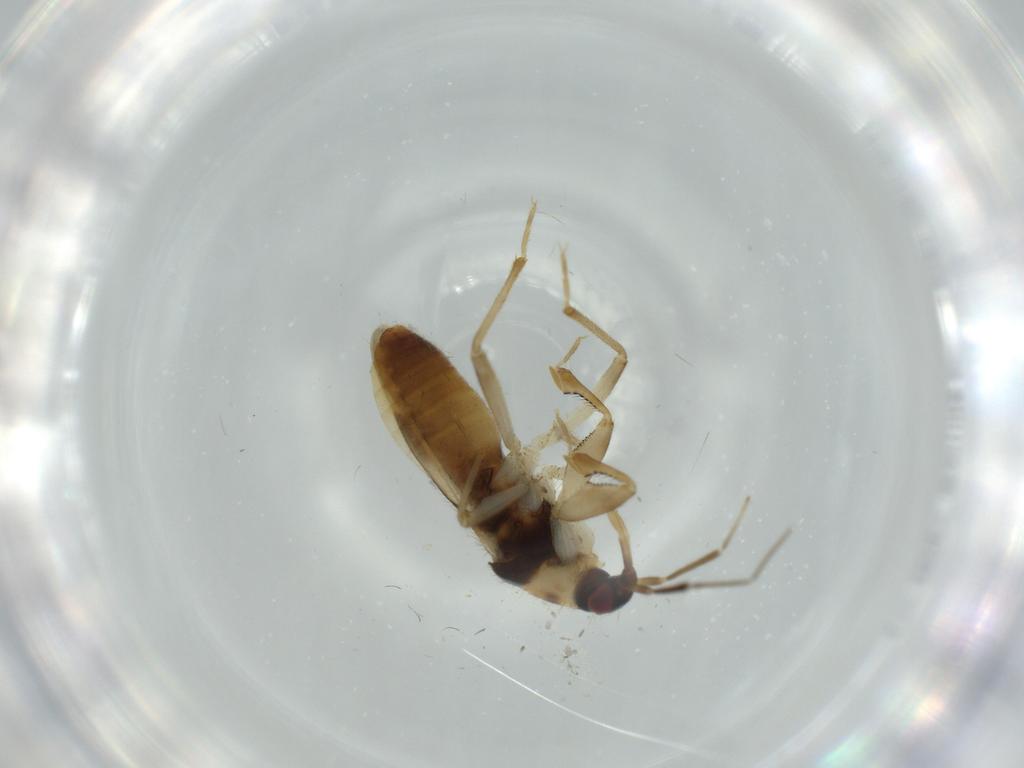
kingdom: Animalia
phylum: Arthropoda
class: Insecta
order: Hemiptera
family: Nabidae
